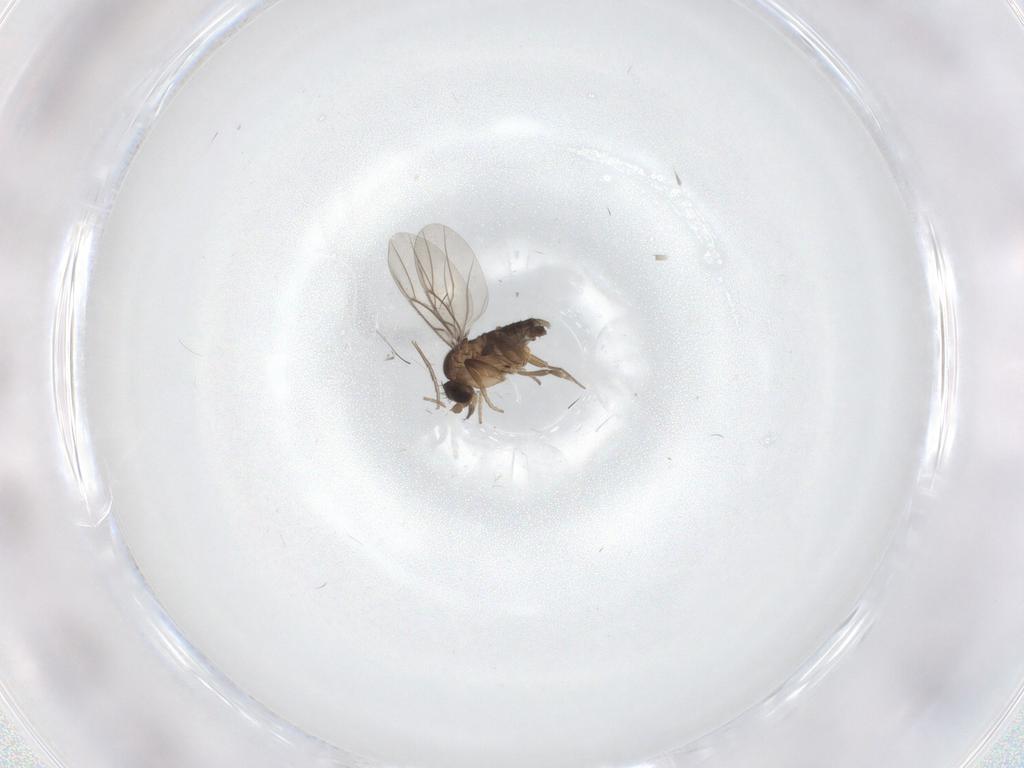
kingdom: Animalia
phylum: Arthropoda
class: Insecta
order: Diptera
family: Phoridae
